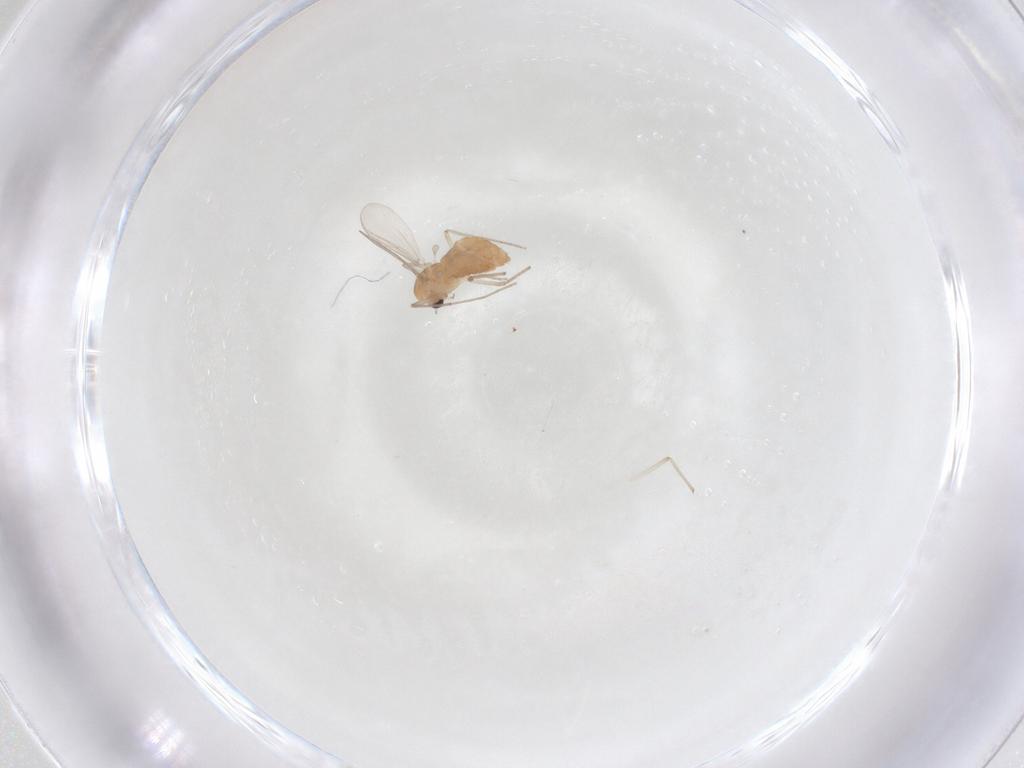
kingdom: Animalia
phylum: Arthropoda
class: Insecta
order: Diptera
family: Chironomidae
